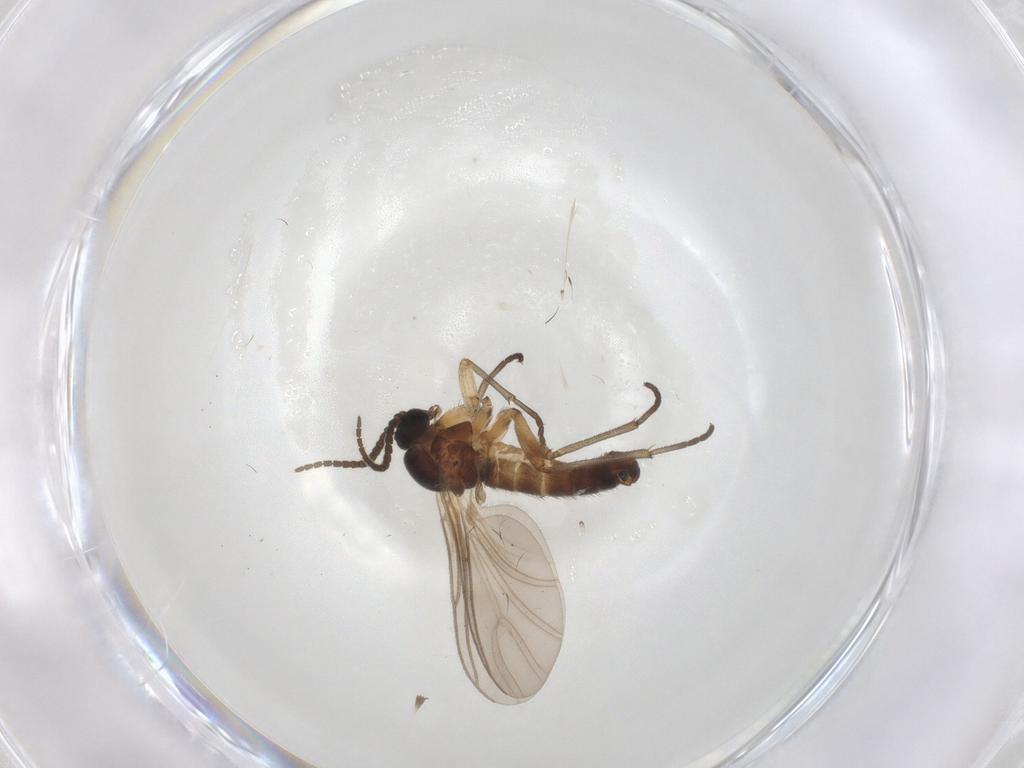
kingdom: Animalia
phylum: Arthropoda
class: Insecta
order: Diptera
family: Sciaridae
